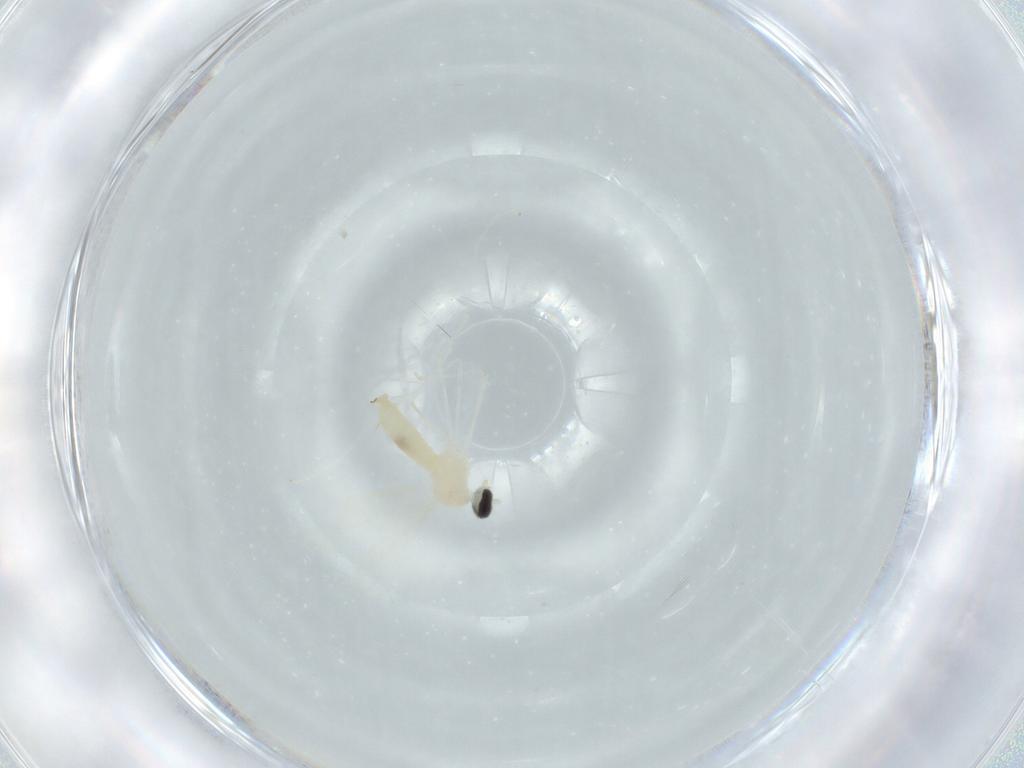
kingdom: Animalia
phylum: Arthropoda
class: Insecta
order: Diptera
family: Cecidomyiidae
